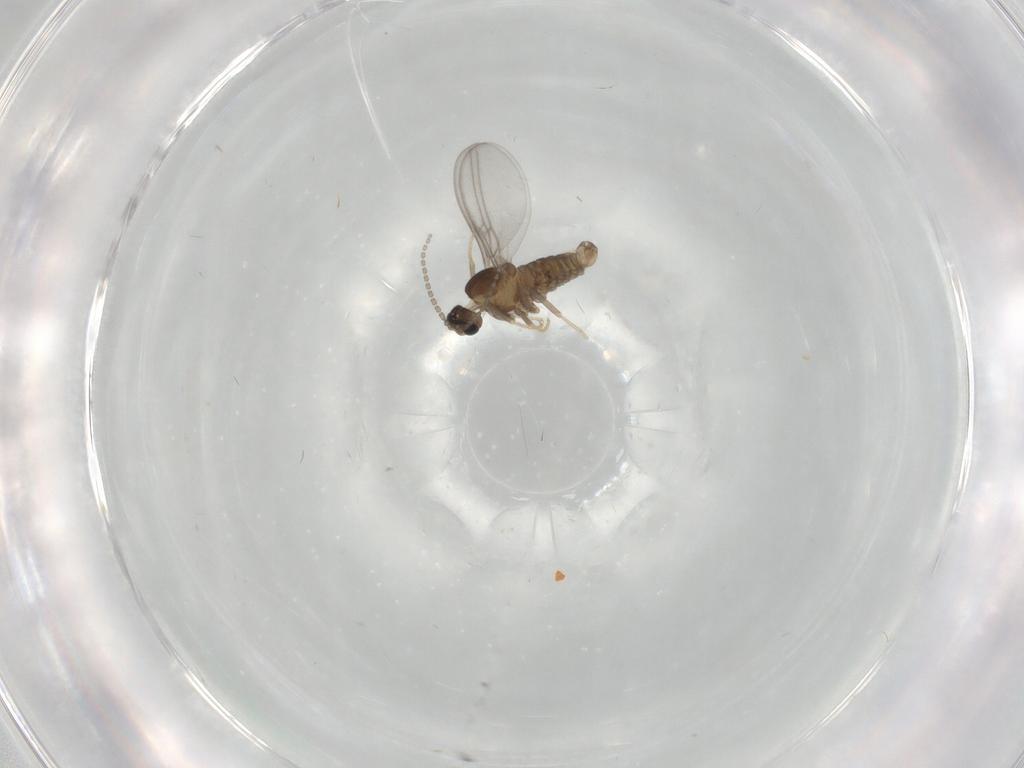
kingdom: Animalia
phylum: Arthropoda
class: Insecta
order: Diptera
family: Cecidomyiidae
